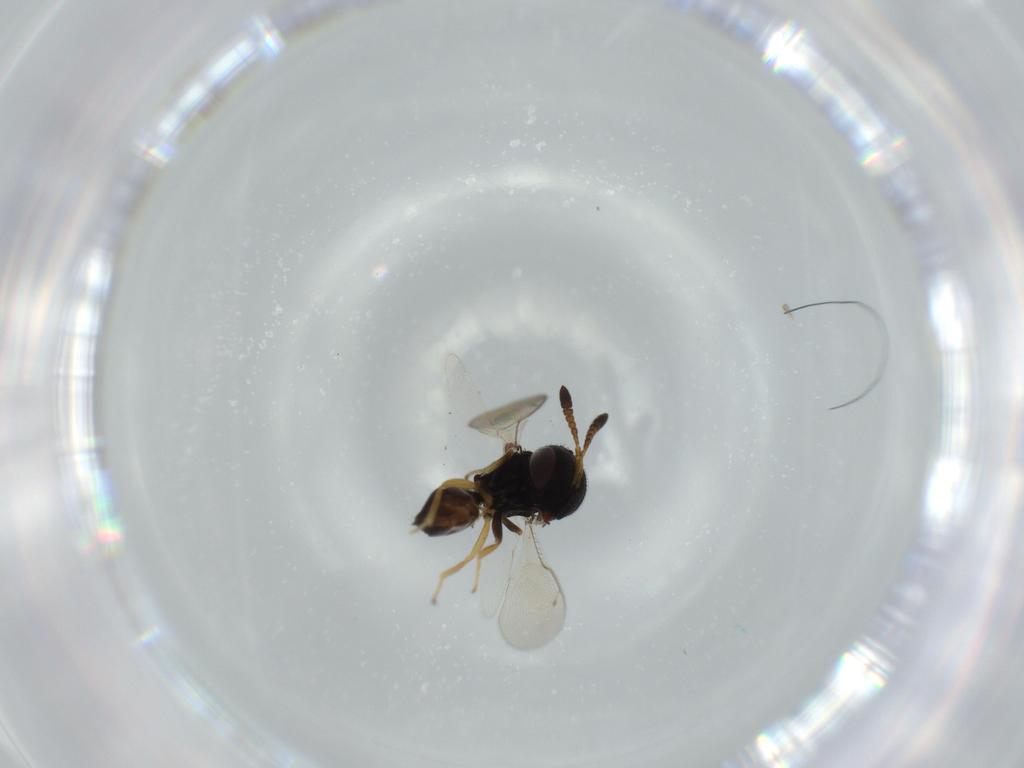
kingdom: Animalia
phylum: Arthropoda
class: Insecta
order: Hymenoptera
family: Pteromalidae
